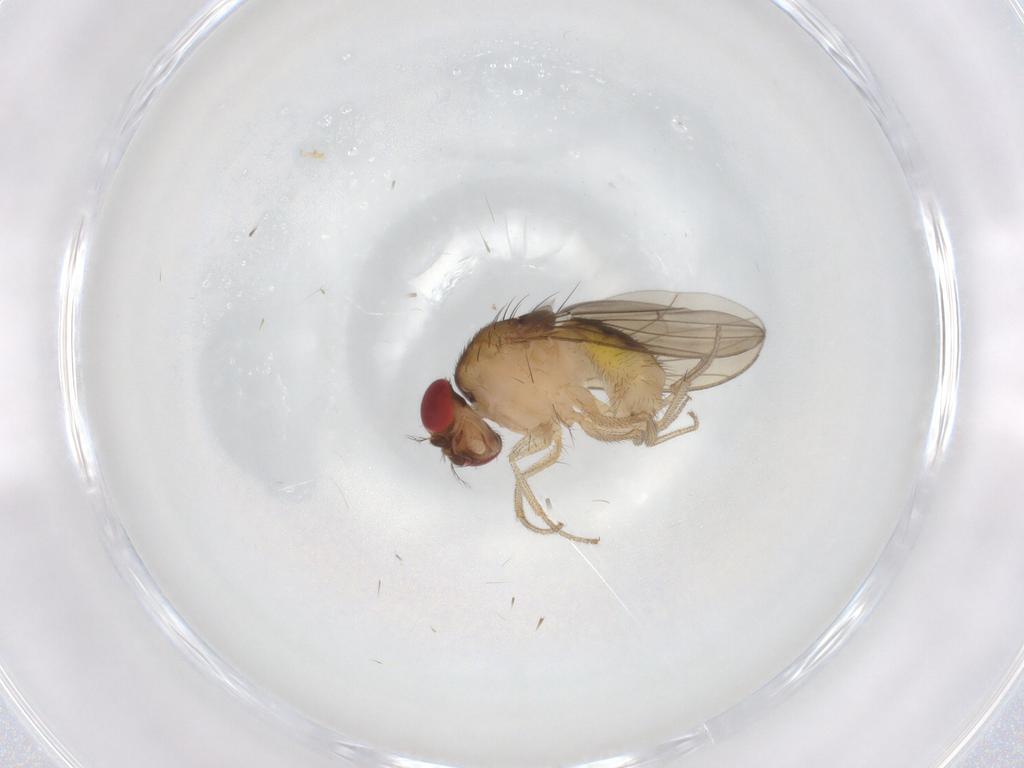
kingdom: Animalia
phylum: Arthropoda
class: Insecta
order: Diptera
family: Drosophilidae
